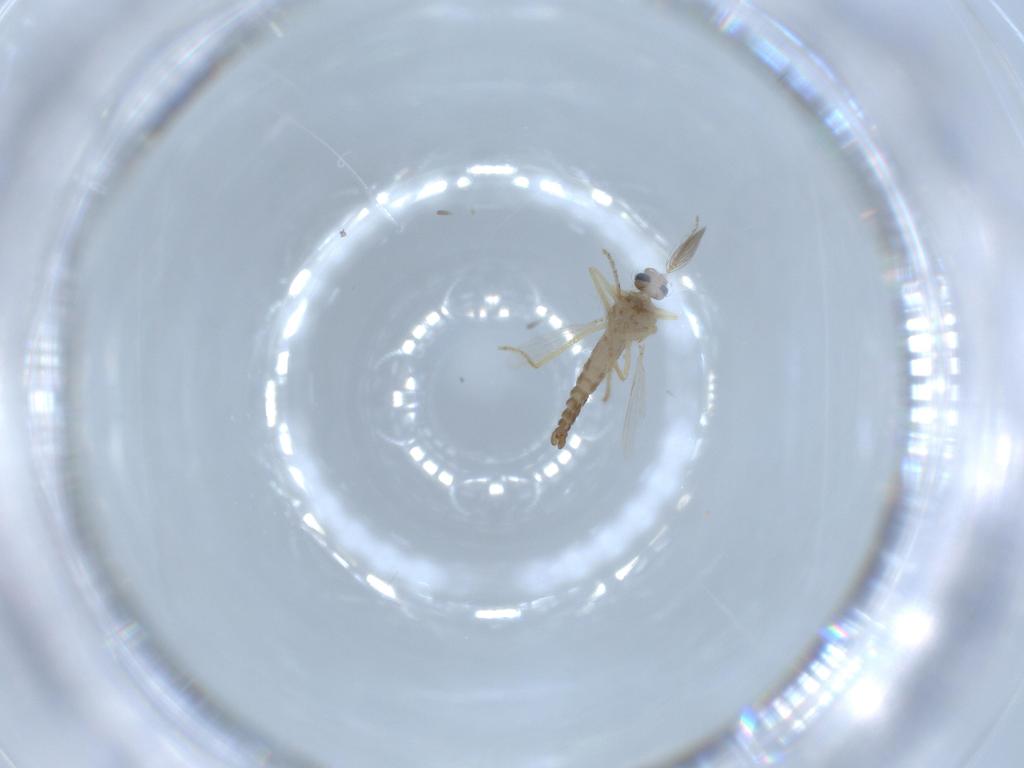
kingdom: Animalia
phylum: Arthropoda
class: Insecta
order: Diptera
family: Ceratopogonidae
